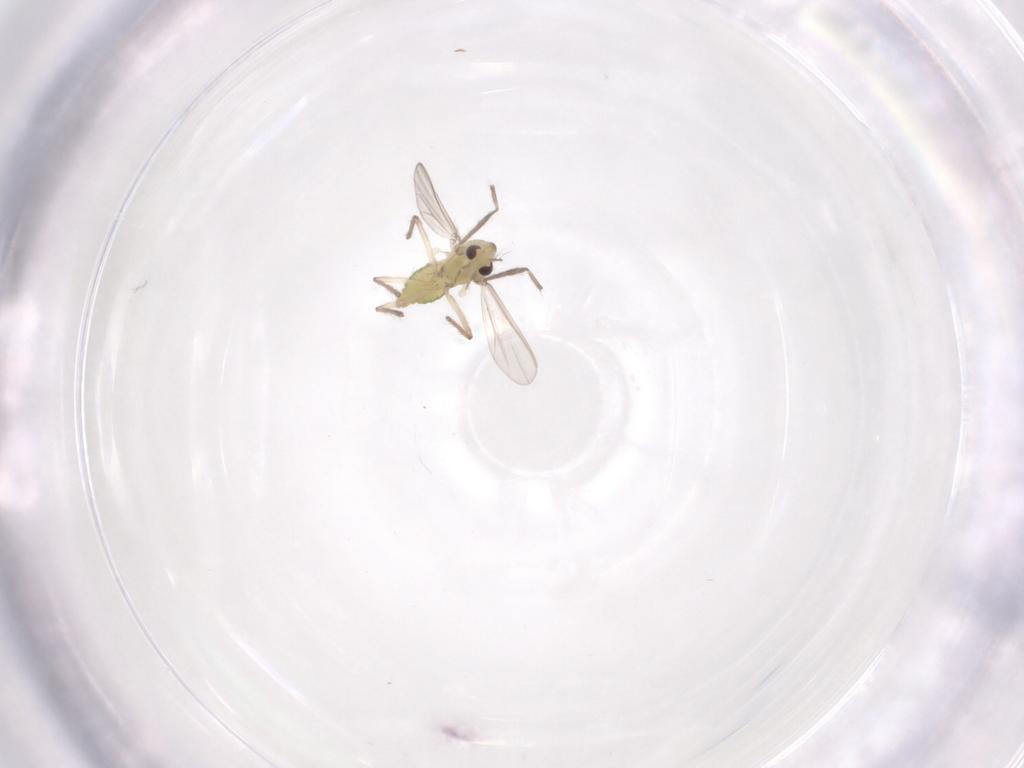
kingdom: Animalia
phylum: Arthropoda
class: Insecta
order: Diptera
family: Chironomidae
